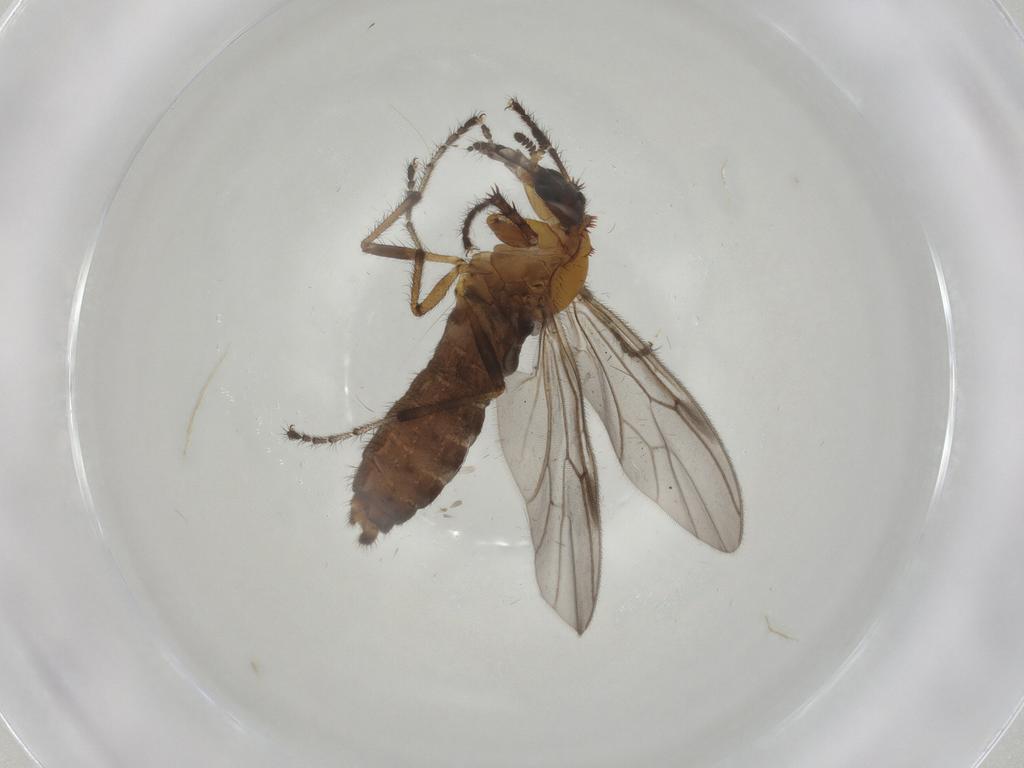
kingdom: Animalia
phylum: Arthropoda
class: Insecta
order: Diptera
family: Bibionidae
